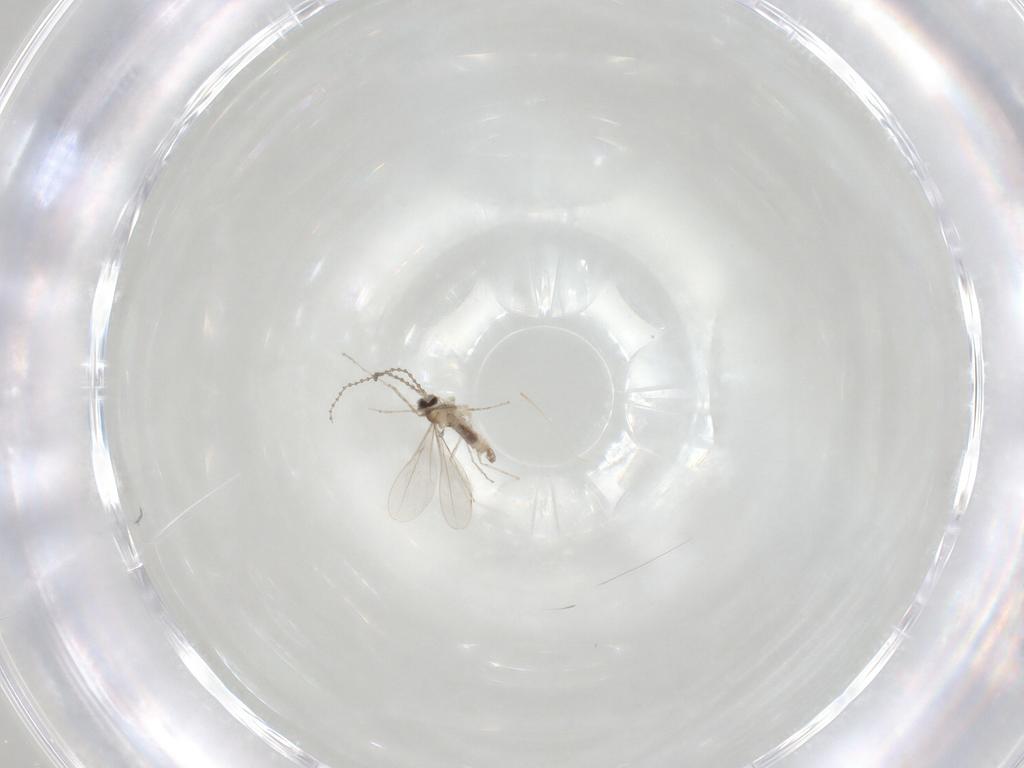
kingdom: Animalia
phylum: Arthropoda
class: Insecta
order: Diptera
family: Cecidomyiidae
